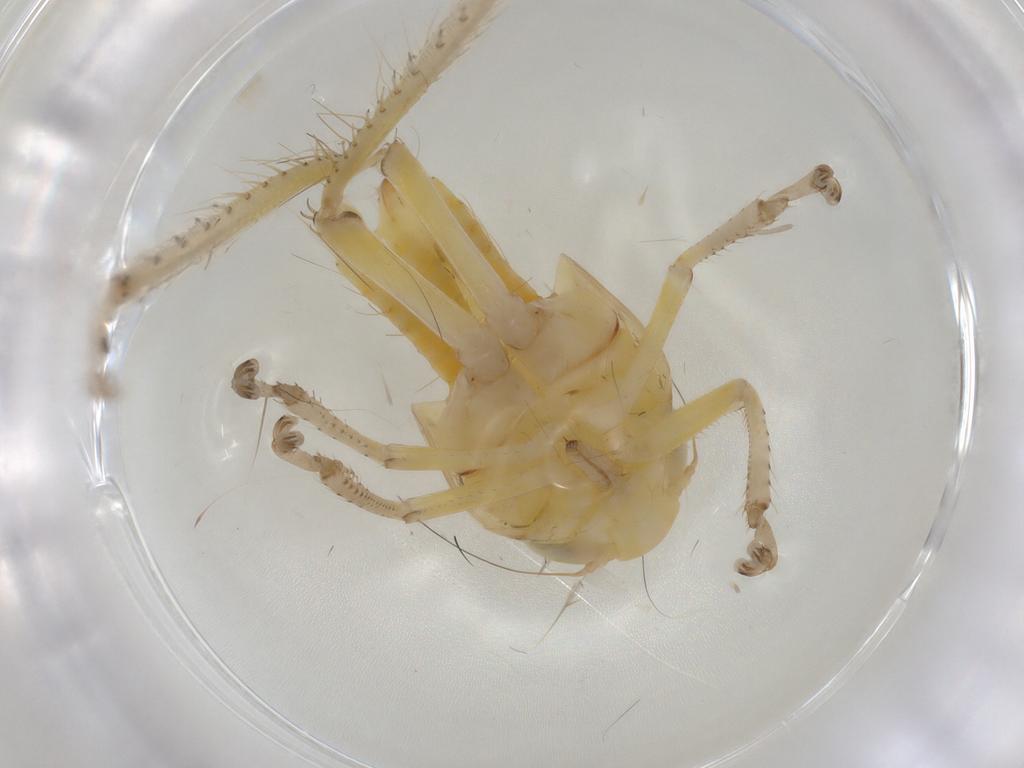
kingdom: Animalia
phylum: Arthropoda
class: Insecta
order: Hemiptera
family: Cicadellidae
